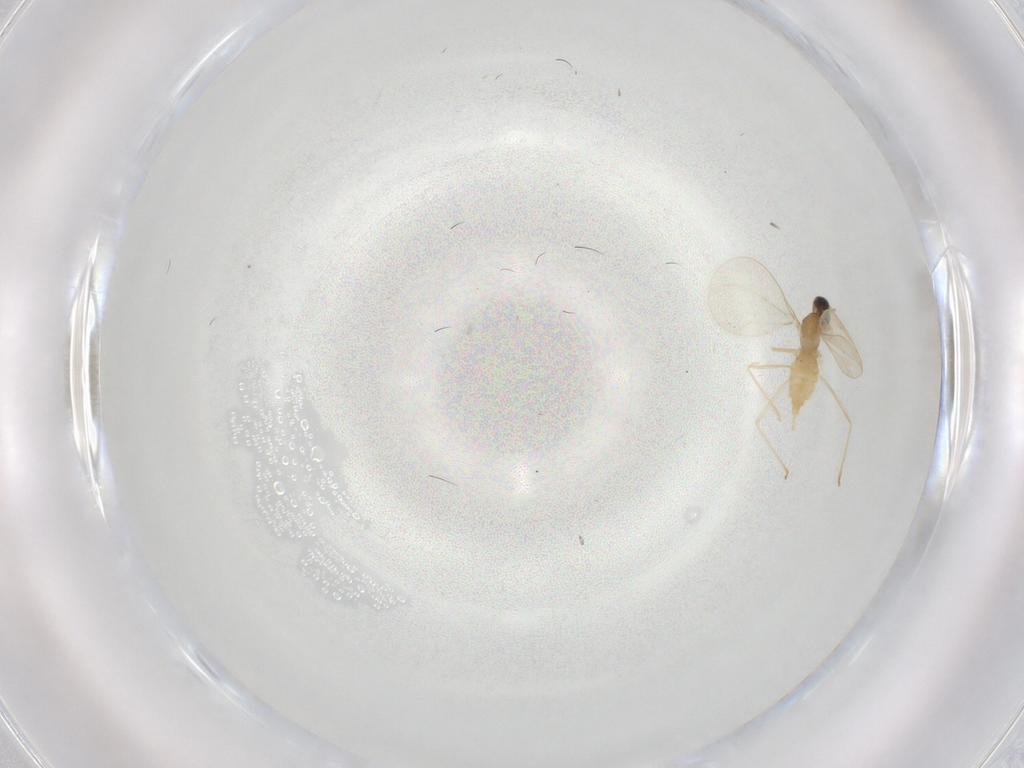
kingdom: Animalia
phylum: Arthropoda
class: Insecta
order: Diptera
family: Cecidomyiidae
